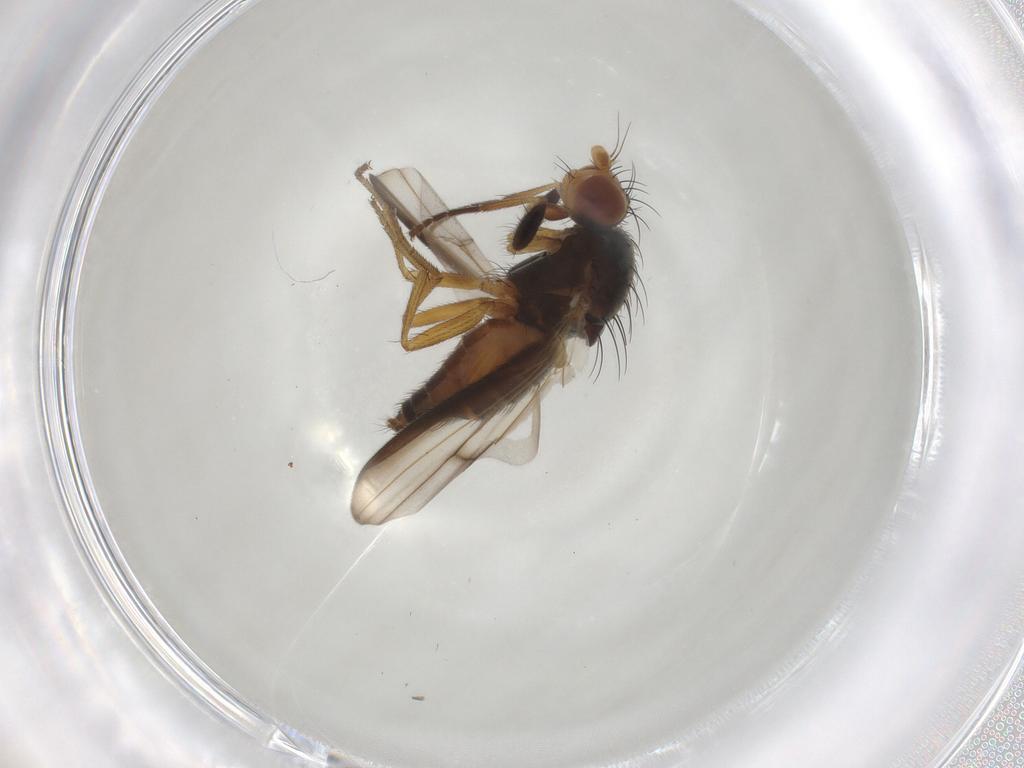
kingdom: Animalia
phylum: Arthropoda
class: Insecta
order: Diptera
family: Heleomyzidae
